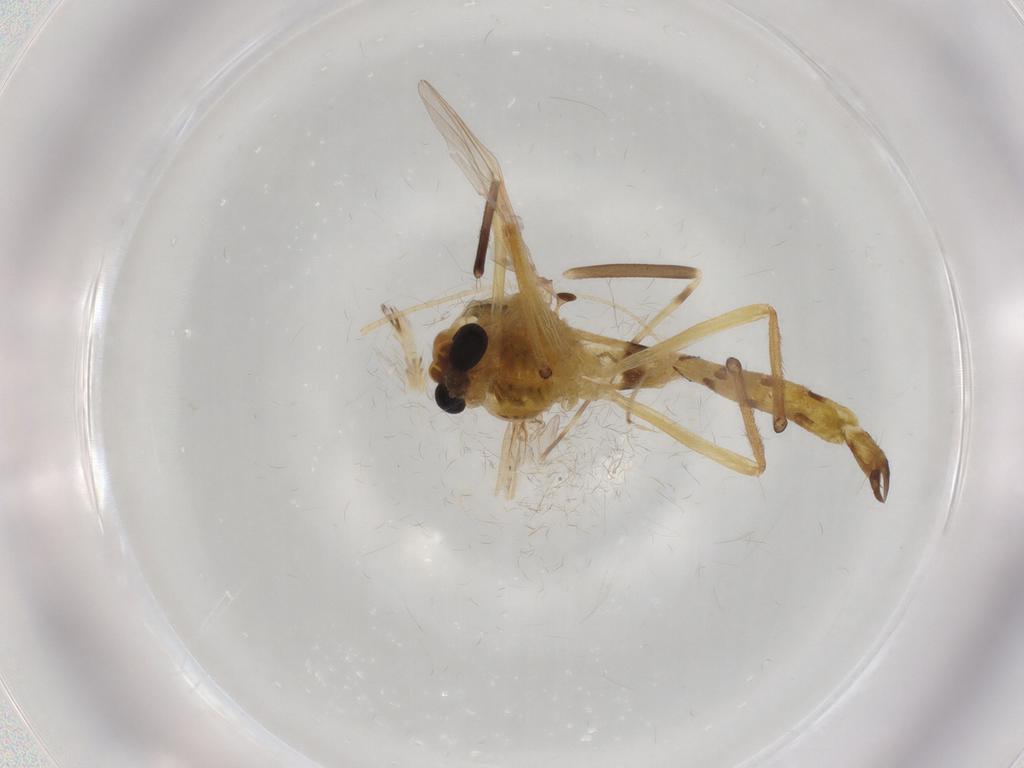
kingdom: Animalia
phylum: Arthropoda
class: Insecta
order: Diptera
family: Chironomidae
